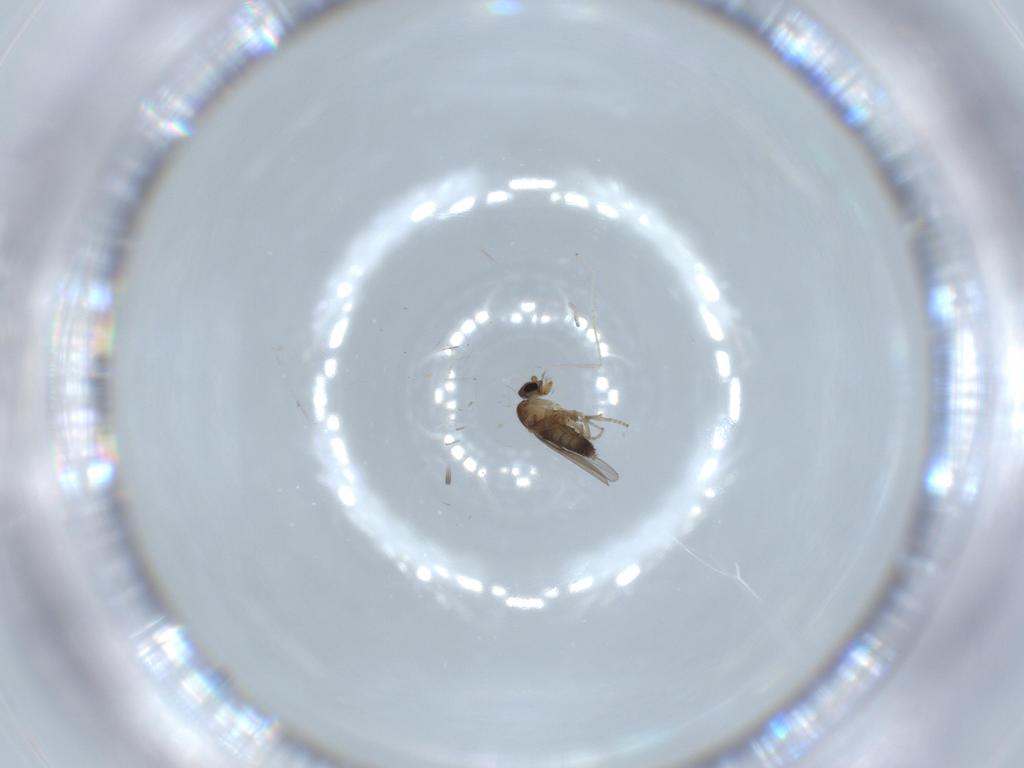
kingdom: Animalia
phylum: Arthropoda
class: Insecta
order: Diptera
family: Phoridae
